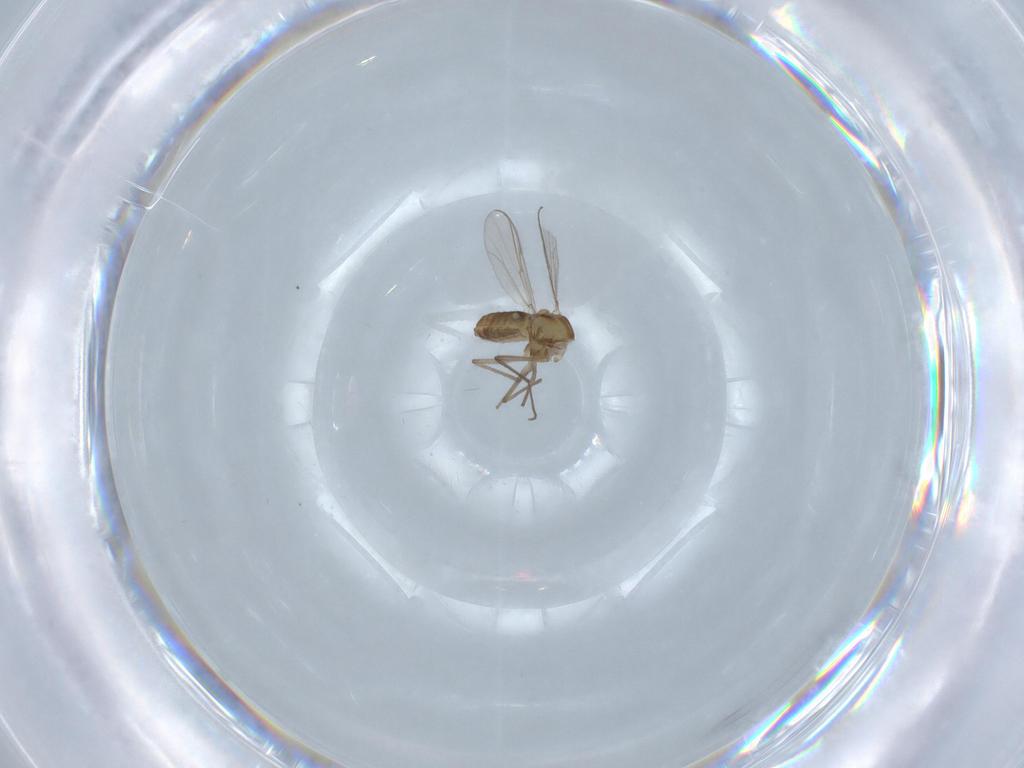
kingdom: Animalia
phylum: Arthropoda
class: Insecta
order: Diptera
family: Chironomidae
